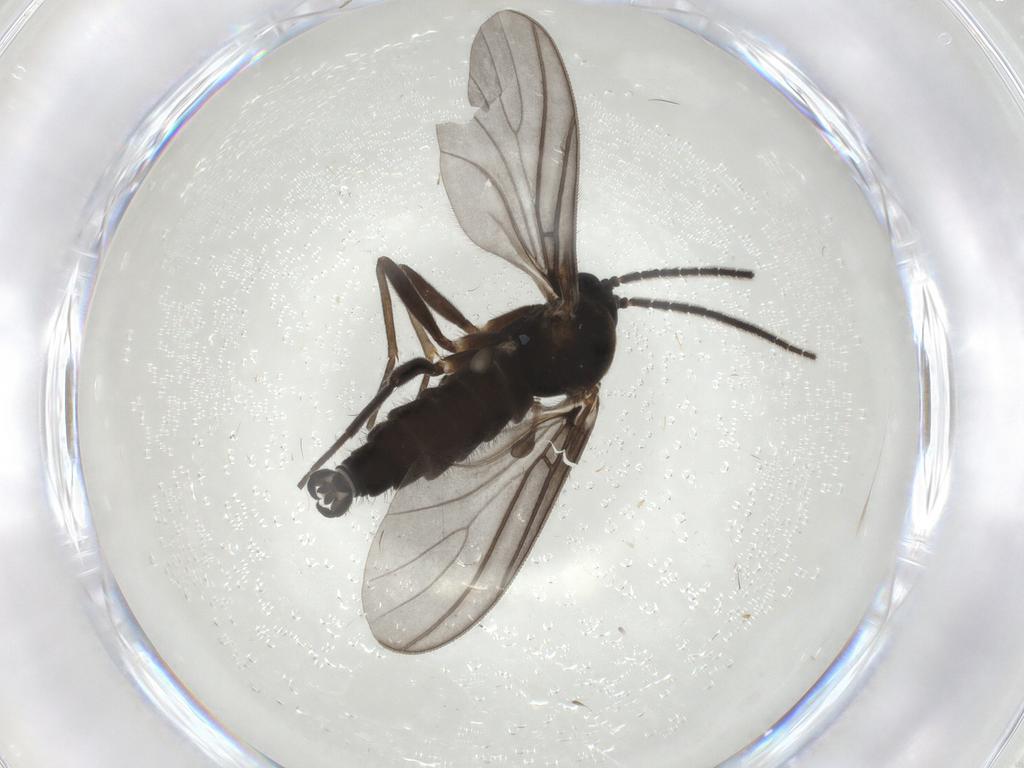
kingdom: Animalia
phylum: Arthropoda
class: Insecta
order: Diptera
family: Sciaridae
